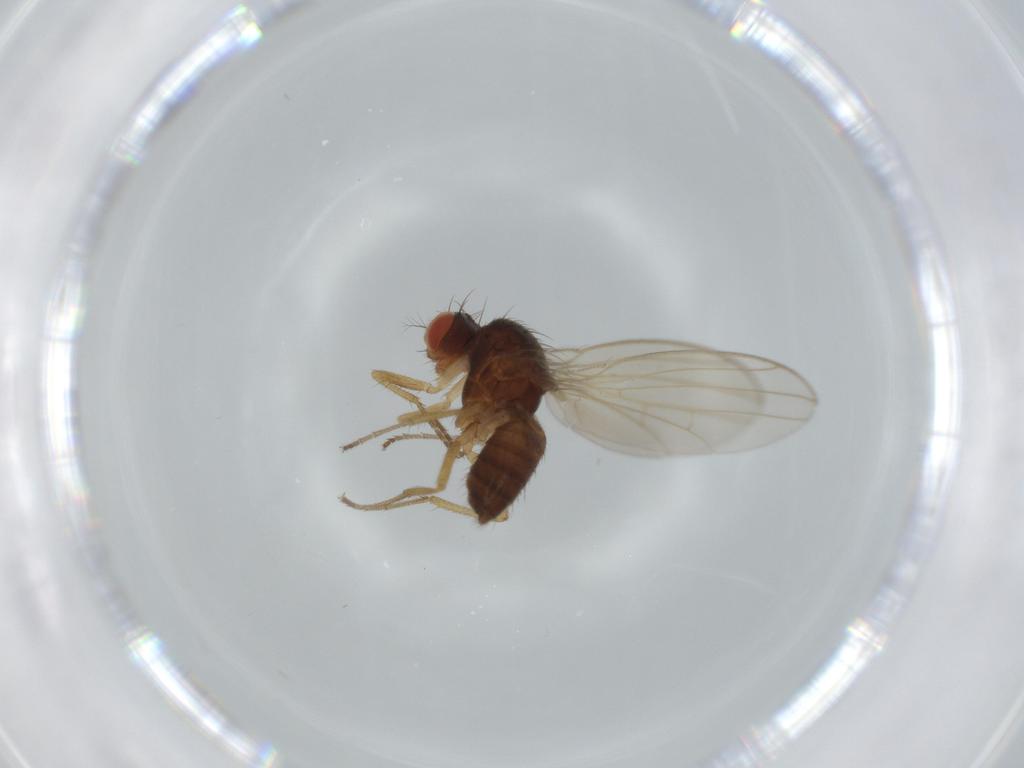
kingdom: Animalia
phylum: Arthropoda
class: Insecta
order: Diptera
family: Drosophilidae
